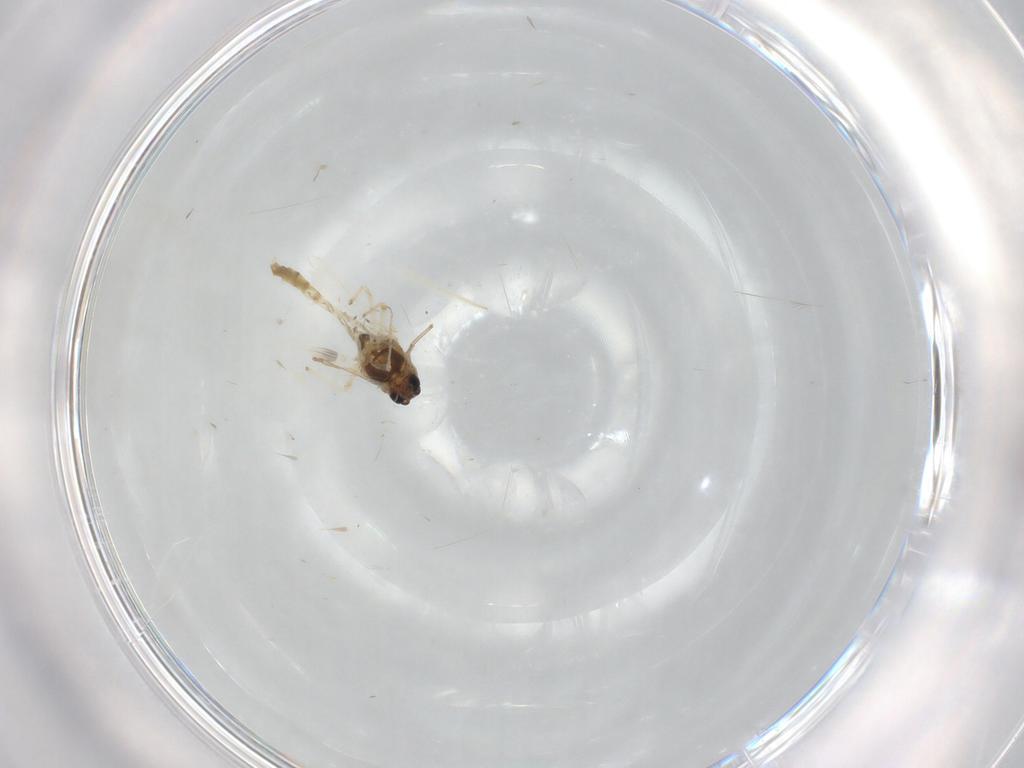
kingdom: Animalia
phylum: Arthropoda
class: Insecta
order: Diptera
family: Chironomidae
